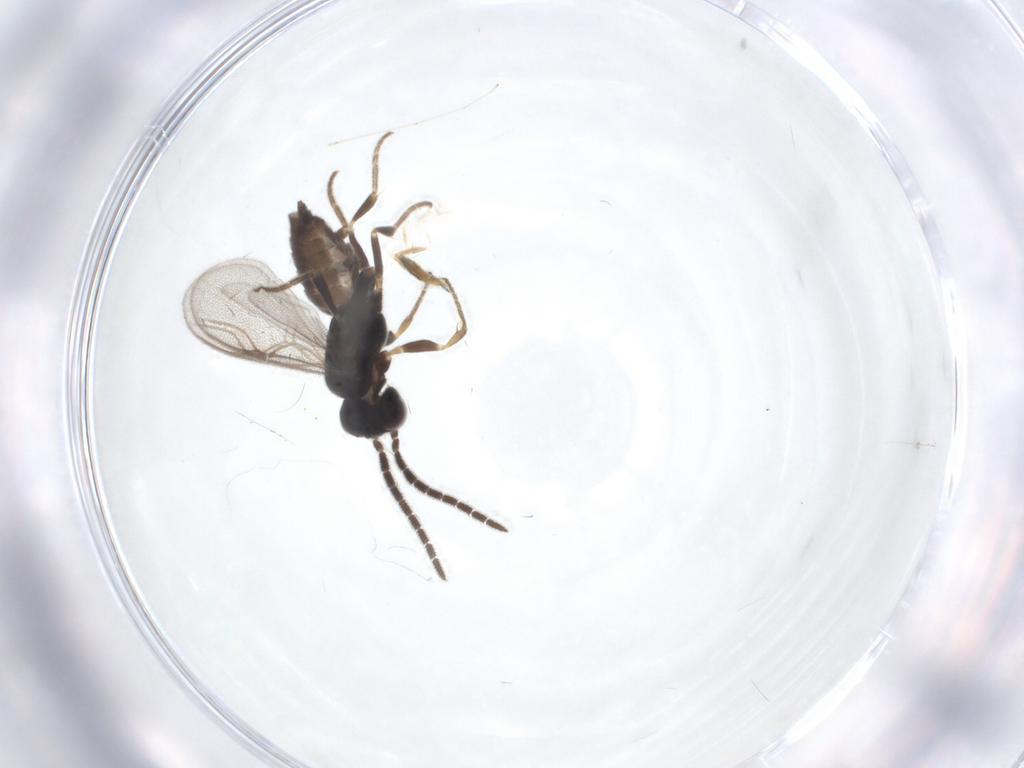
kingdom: Animalia
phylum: Arthropoda
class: Insecta
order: Hymenoptera
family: Dryinidae
